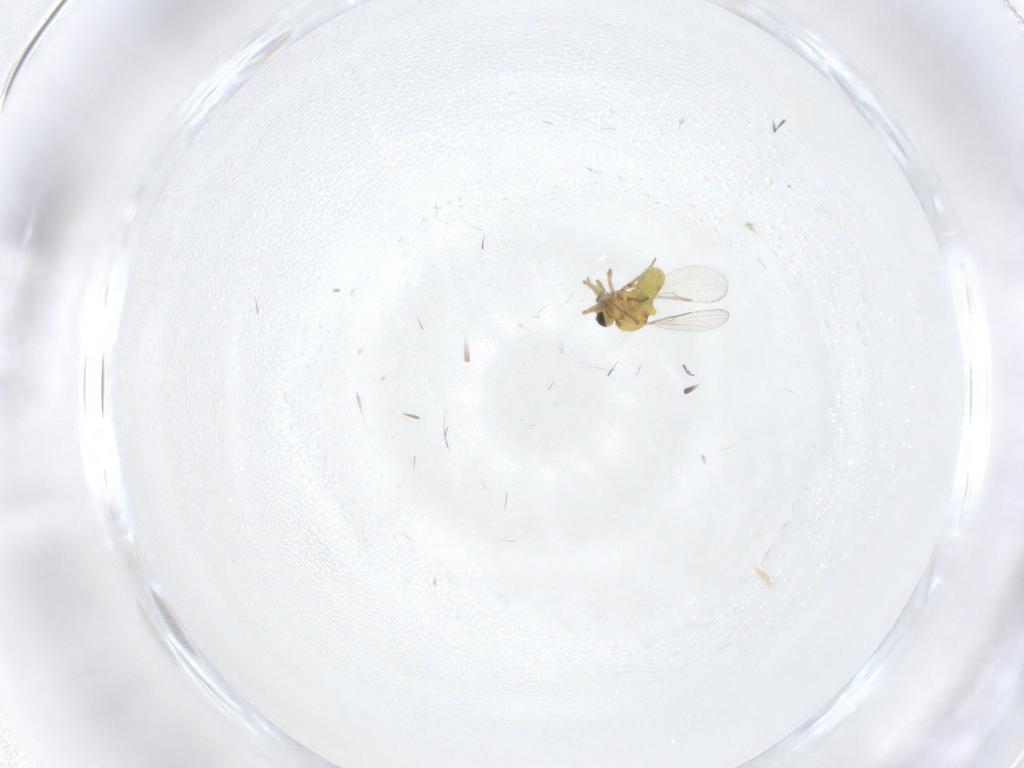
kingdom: Animalia
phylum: Arthropoda
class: Insecta
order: Diptera
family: Ceratopogonidae
